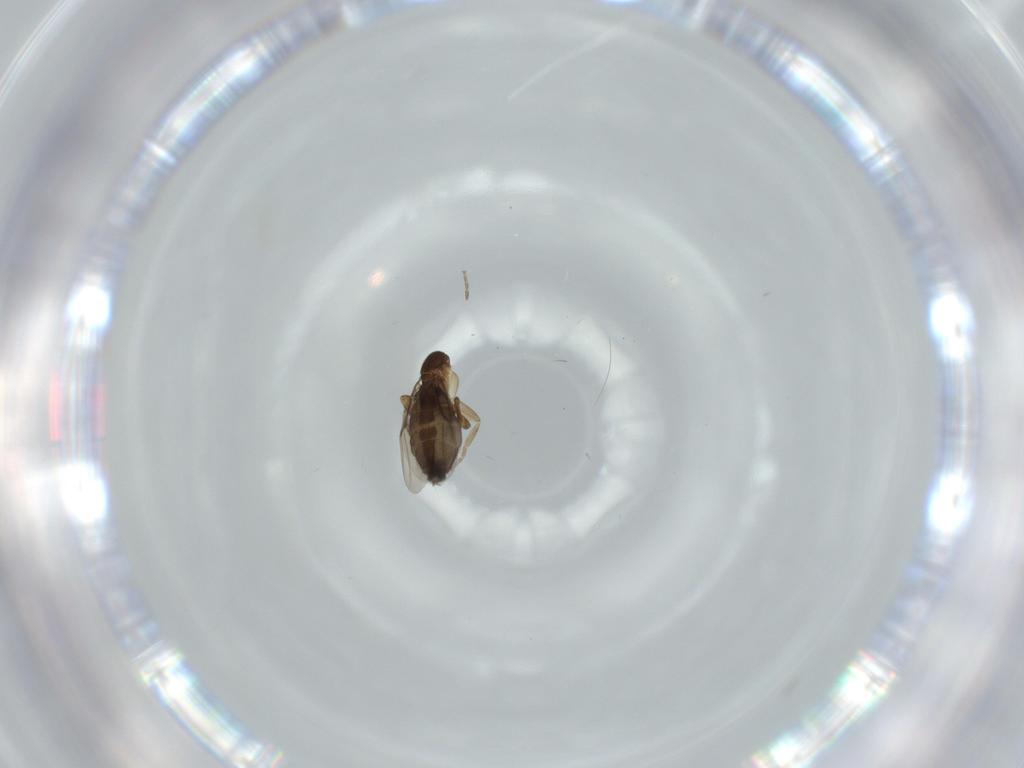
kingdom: Animalia
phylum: Arthropoda
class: Insecta
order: Diptera
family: Phoridae
